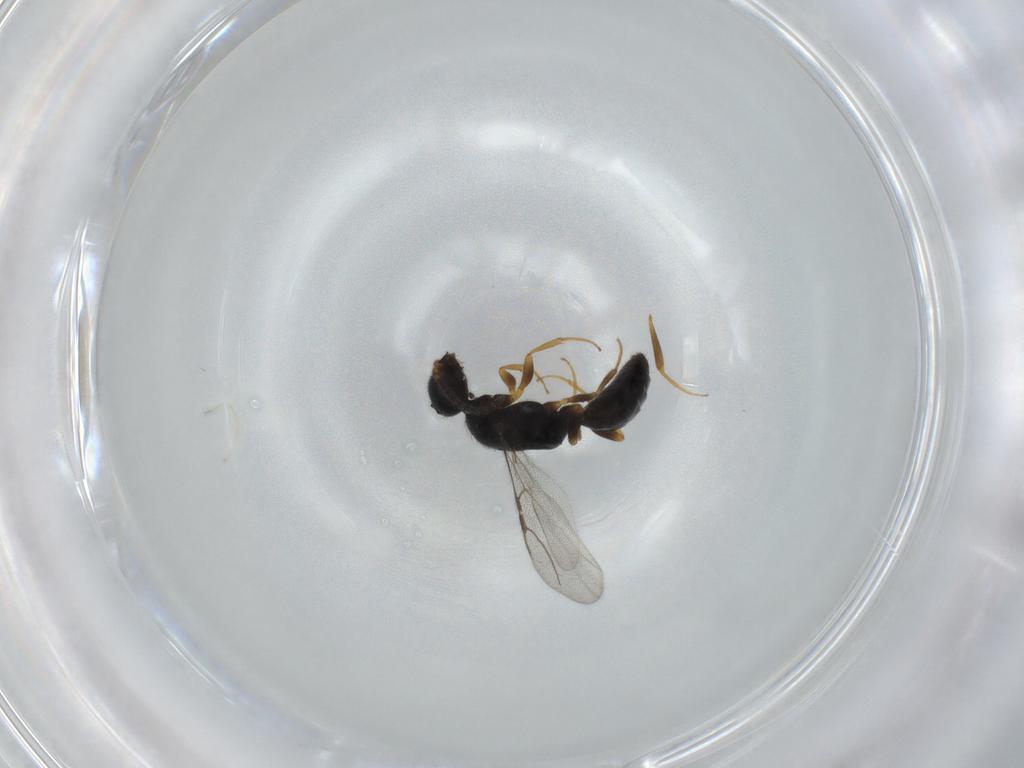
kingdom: Animalia
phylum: Arthropoda
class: Insecta
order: Hymenoptera
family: Bethylidae
